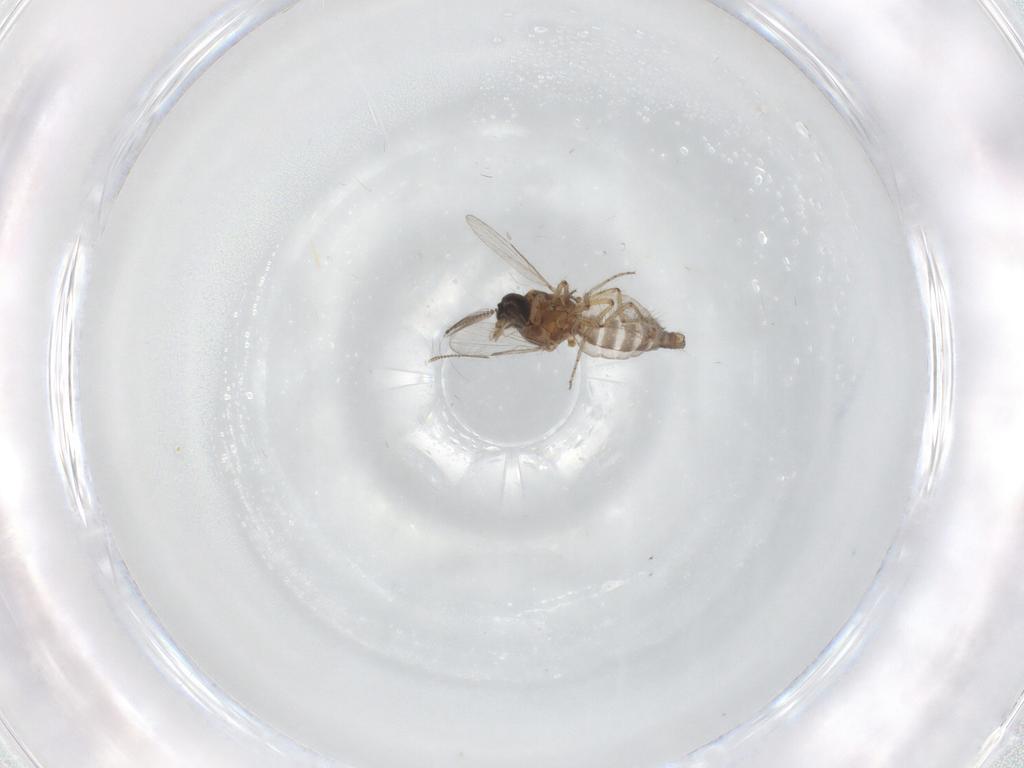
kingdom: Animalia
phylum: Arthropoda
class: Insecta
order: Diptera
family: Ceratopogonidae
